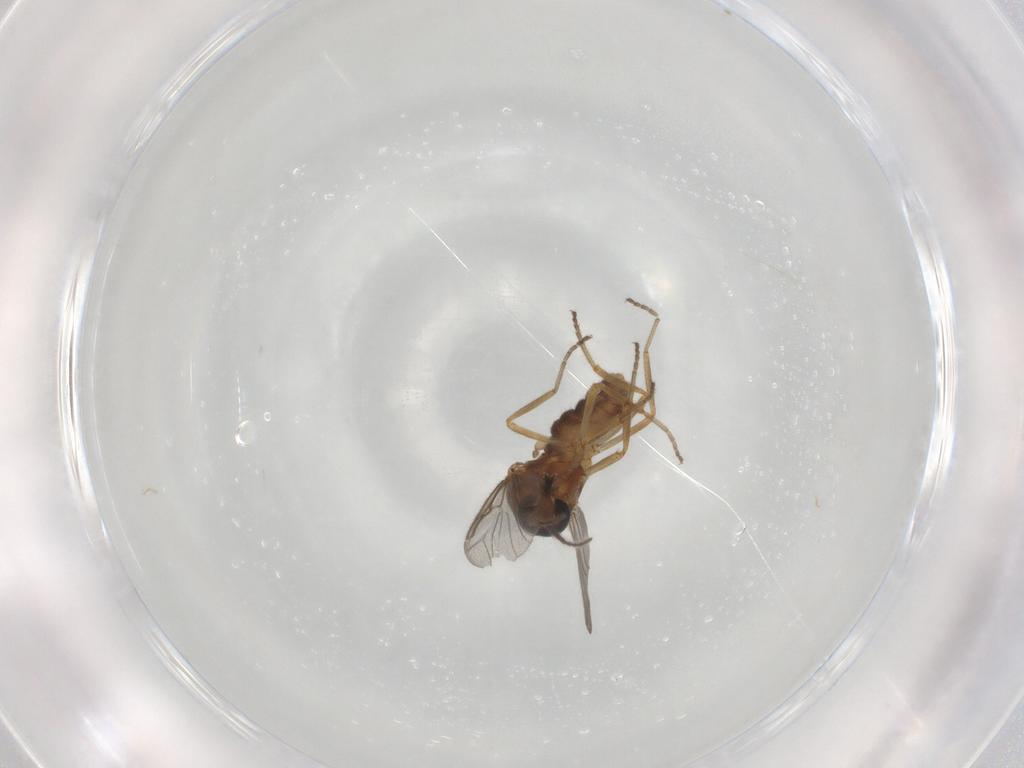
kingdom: Animalia
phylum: Arthropoda
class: Insecta
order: Diptera
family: Ceratopogonidae
